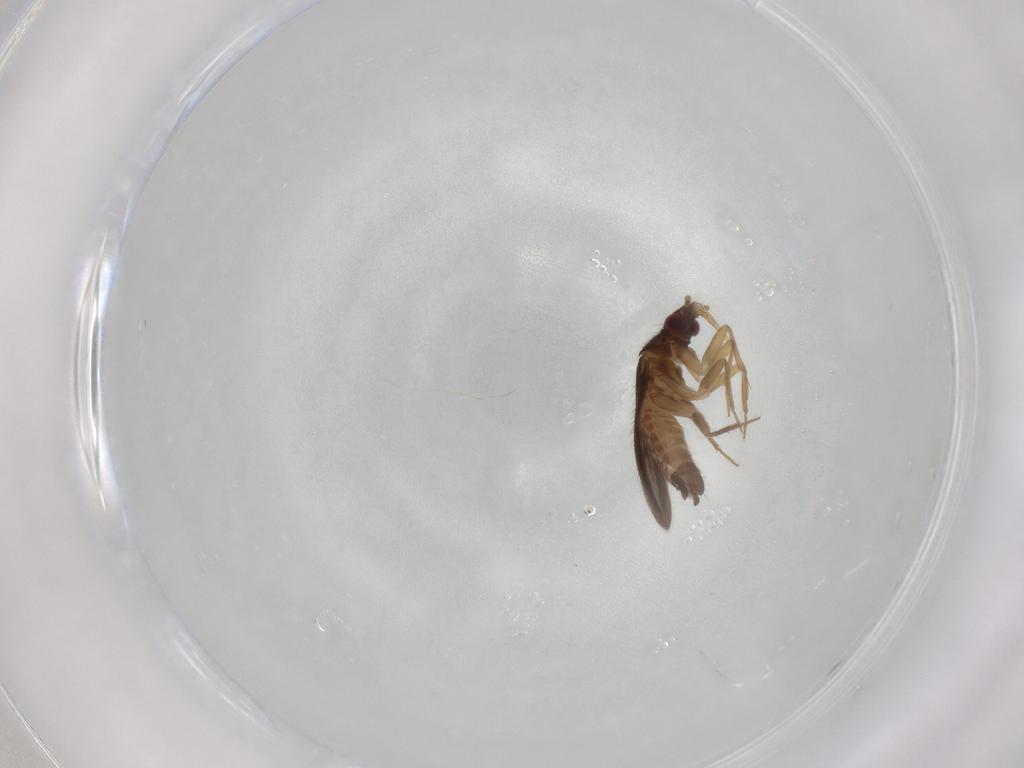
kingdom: Animalia
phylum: Arthropoda
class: Insecta
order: Hemiptera
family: Ceratocombidae
